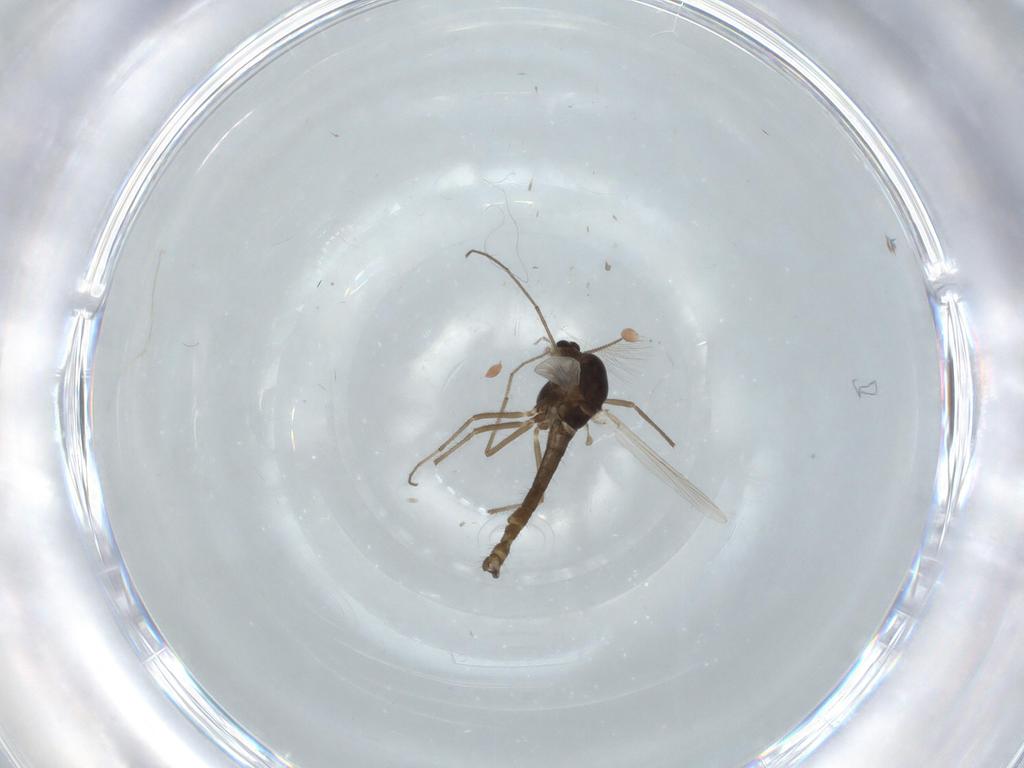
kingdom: Animalia
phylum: Arthropoda
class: Insecta
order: Diptera
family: Chironomidae
